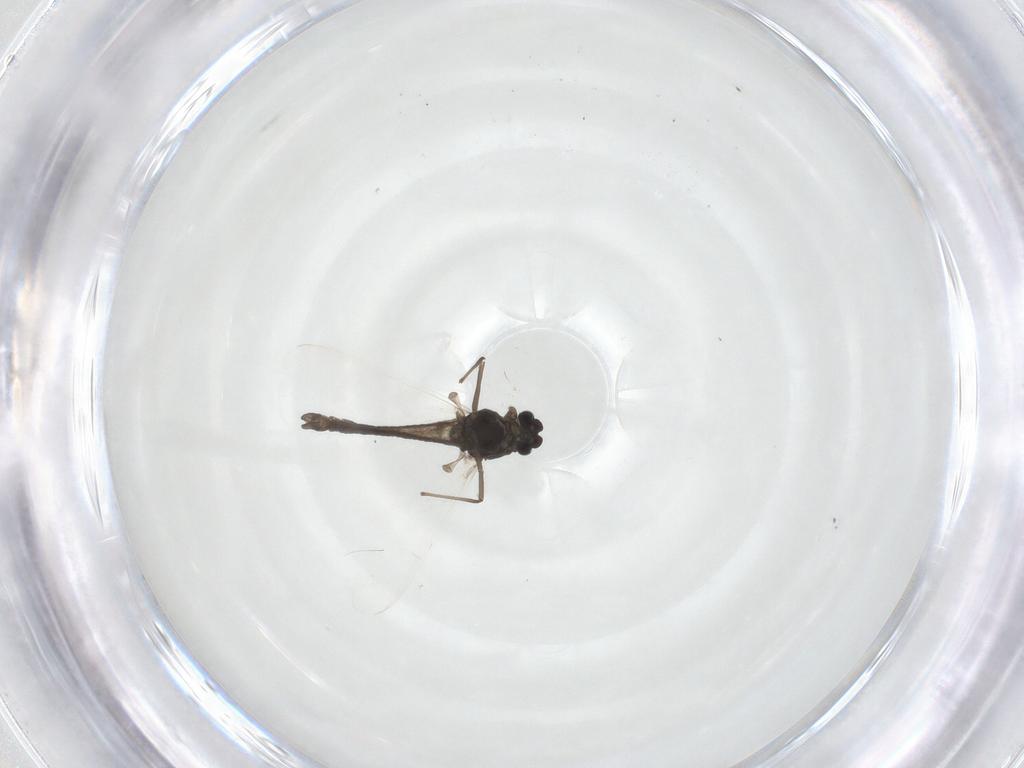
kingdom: Animalia
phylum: Arthropoda
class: Insecta
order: Diptera
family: Chironomidae
